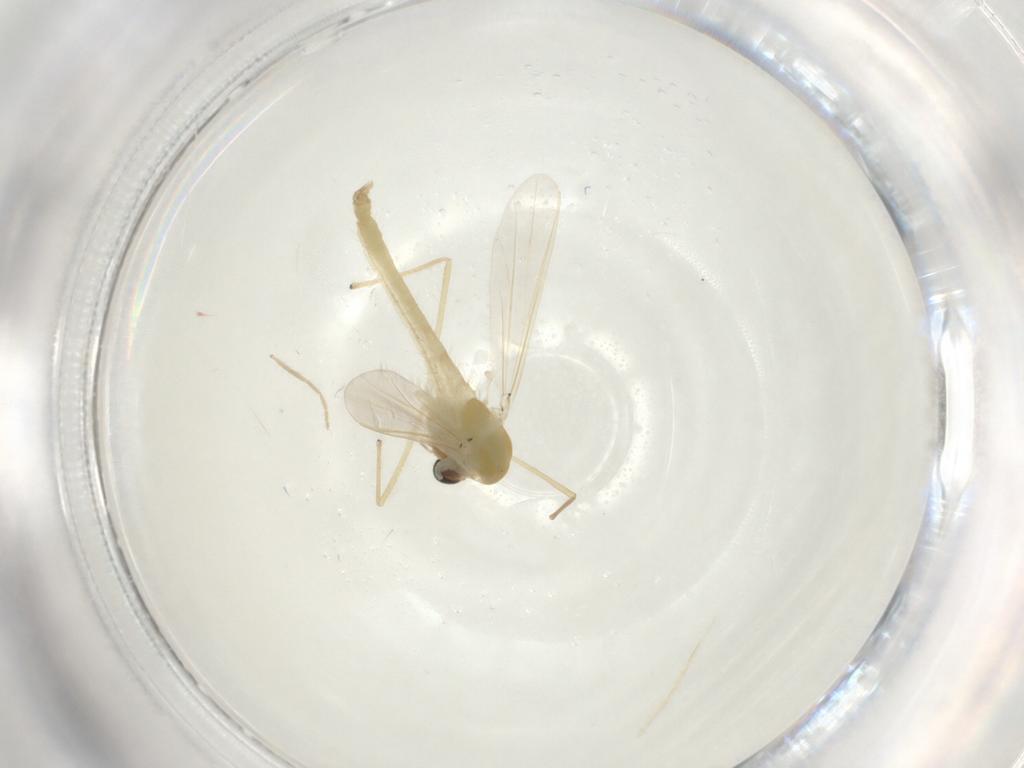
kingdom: Animalia
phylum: Arthropoda
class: Insecta
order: Diptera
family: Chironomidae
